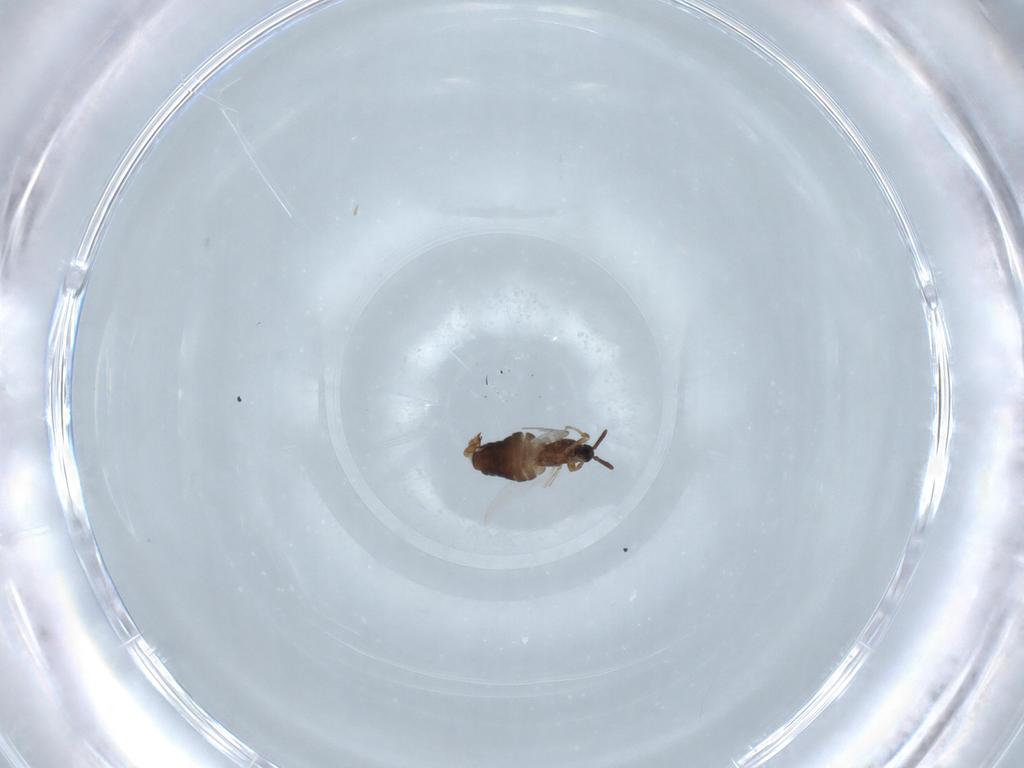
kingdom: Animalia
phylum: Arthropoda
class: Insecta
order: Diptera
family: Scatopsidae
